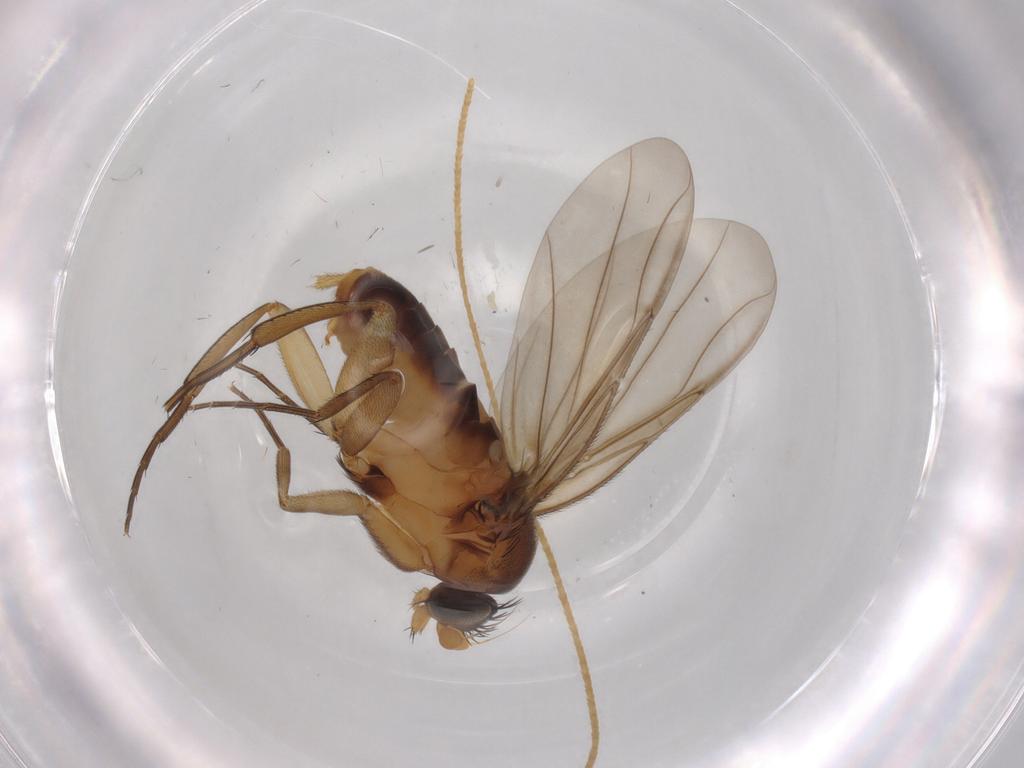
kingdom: Animalia
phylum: Arthropoda
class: Insecta
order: Diptera
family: Phoridae
